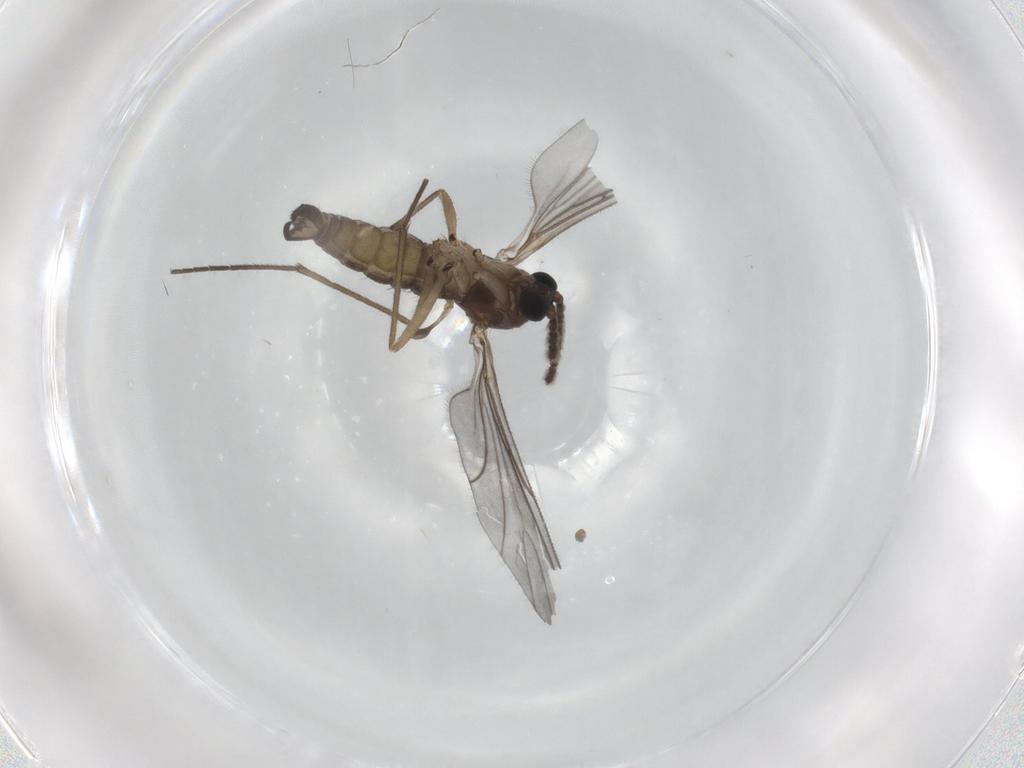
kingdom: Animalia
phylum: Arthropoda
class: Insecta
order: Diptera
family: Cecidomyiidae
